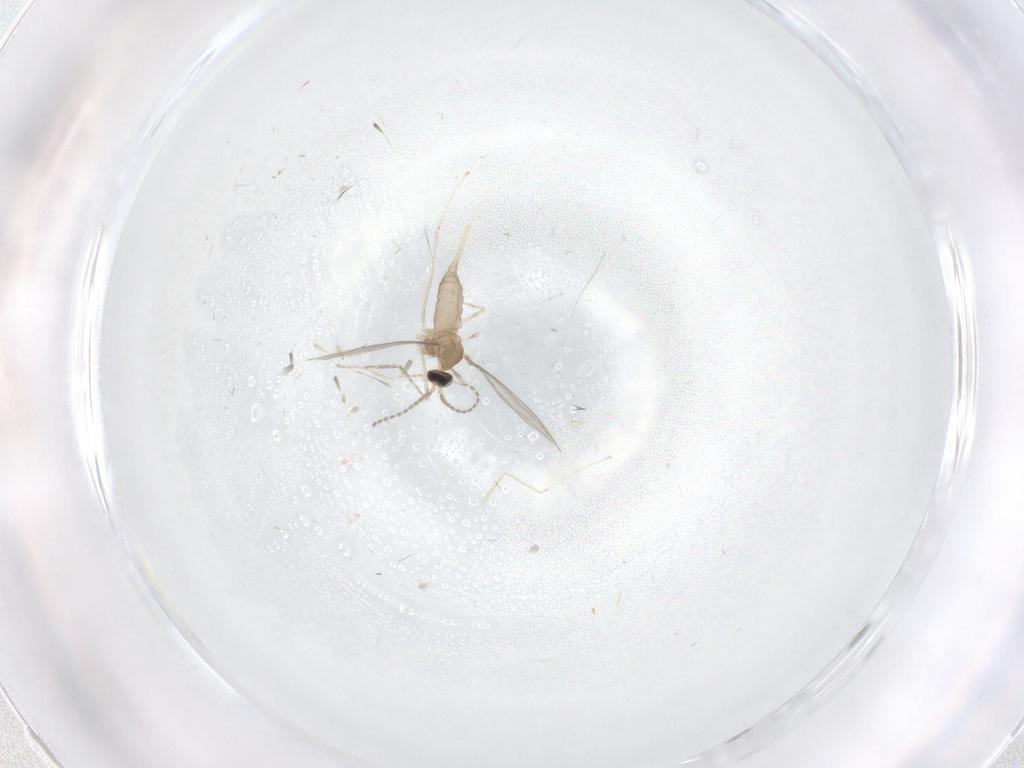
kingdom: Animalia
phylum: Arthropoda
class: Insecta
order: Diptera
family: Cecidomyiidae
